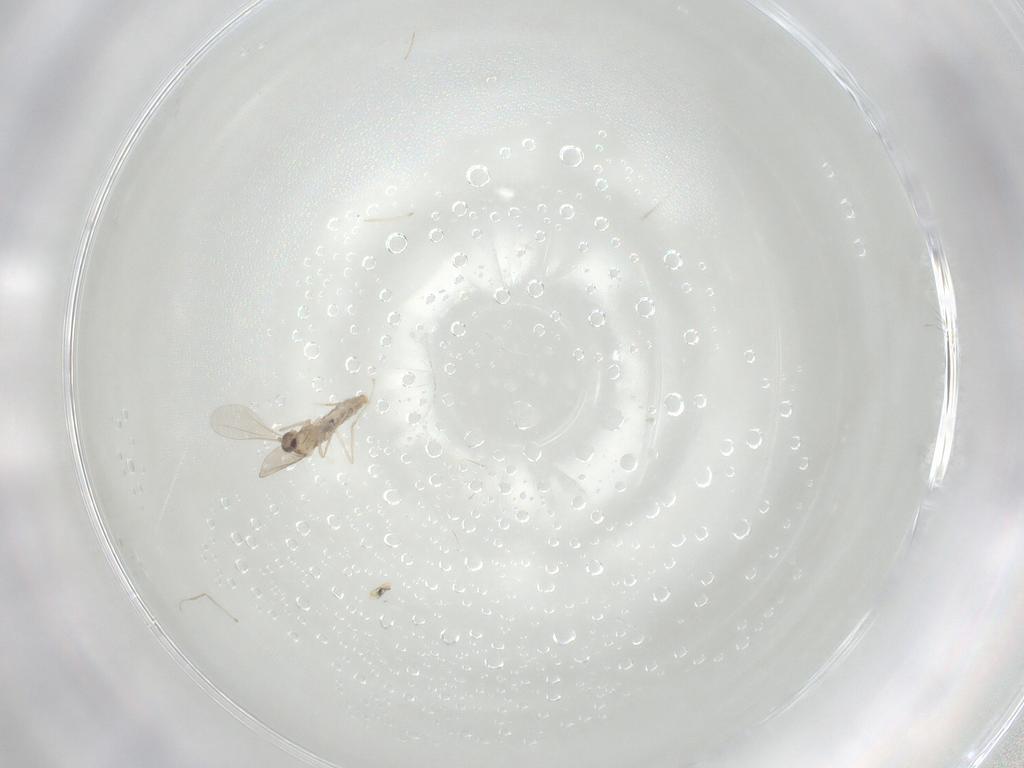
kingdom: Animalia
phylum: Arthropoda
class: Insecta
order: Diptera
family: Cecidomyiidae
